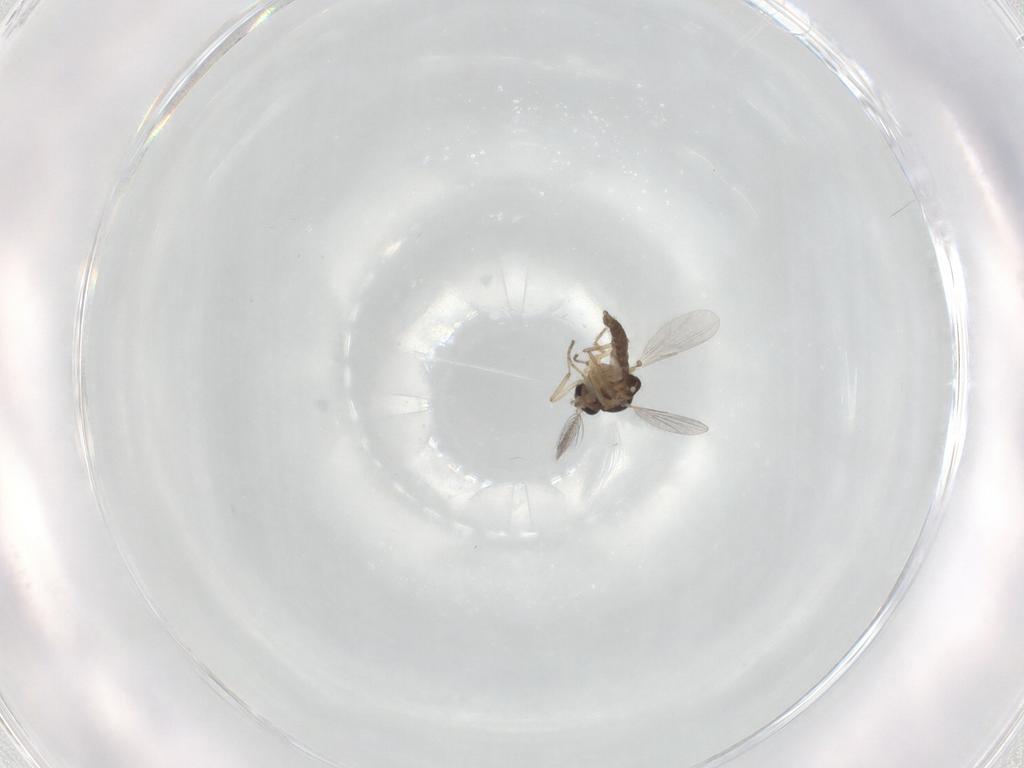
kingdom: Animalia
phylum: Arthropoda
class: Insecta
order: Diptera
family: Ceratopogonidae
